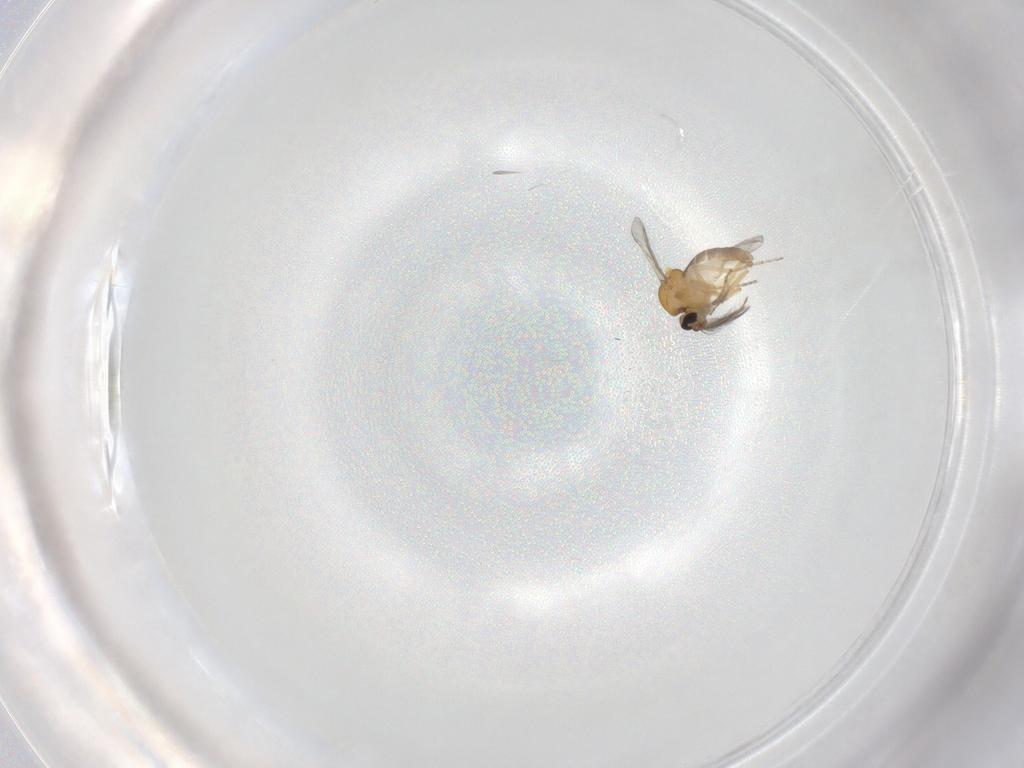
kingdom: Animalia
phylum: Arthropoda
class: Insecta
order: Diptera
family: Ceratopogonidae
